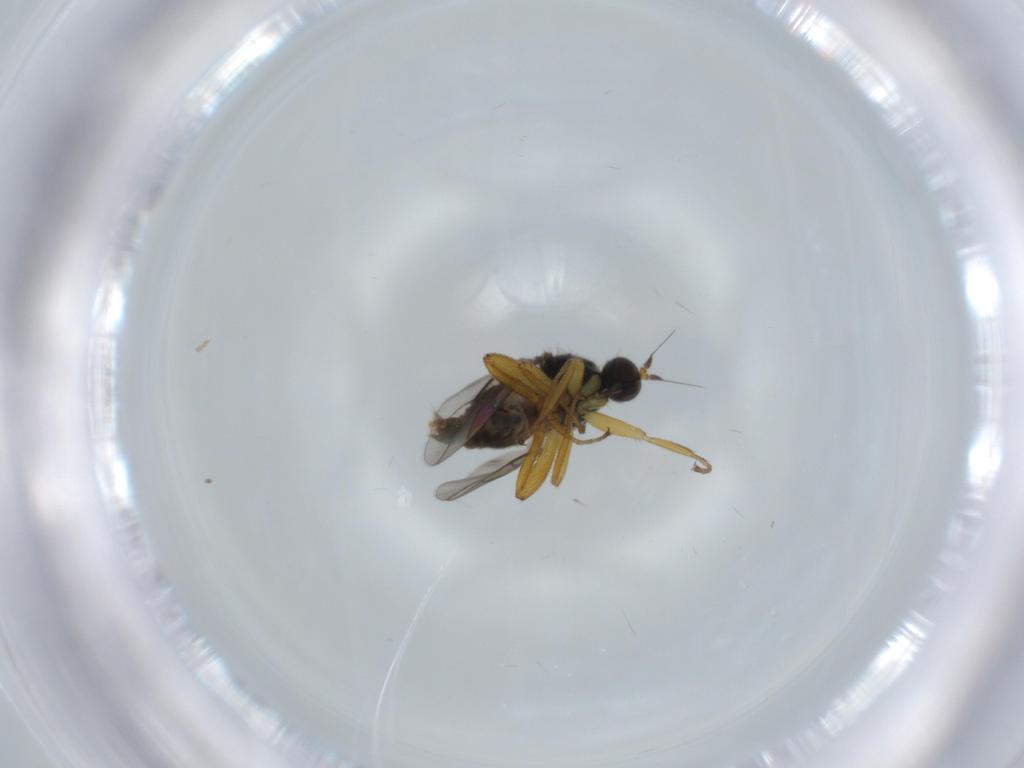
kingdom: Animalia
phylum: Arthropoda
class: Insecta
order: Diptera
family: Hybotidae
